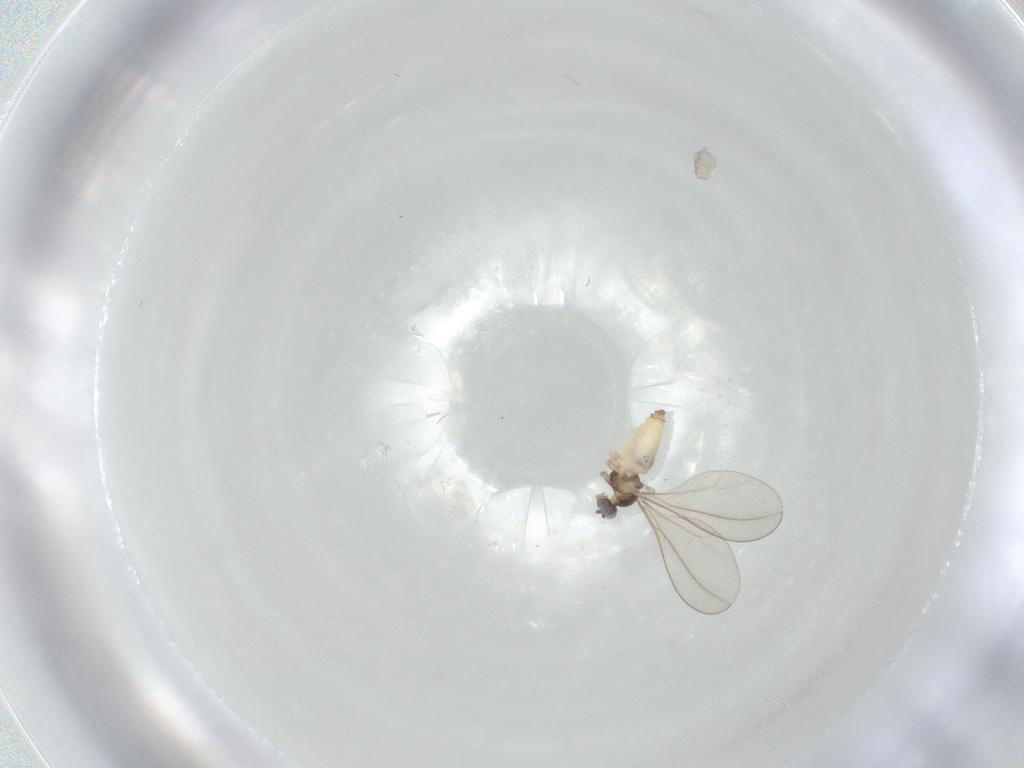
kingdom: Animalia
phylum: Arthropoda
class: Insecta
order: Diptera
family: Cecidomyiidae
